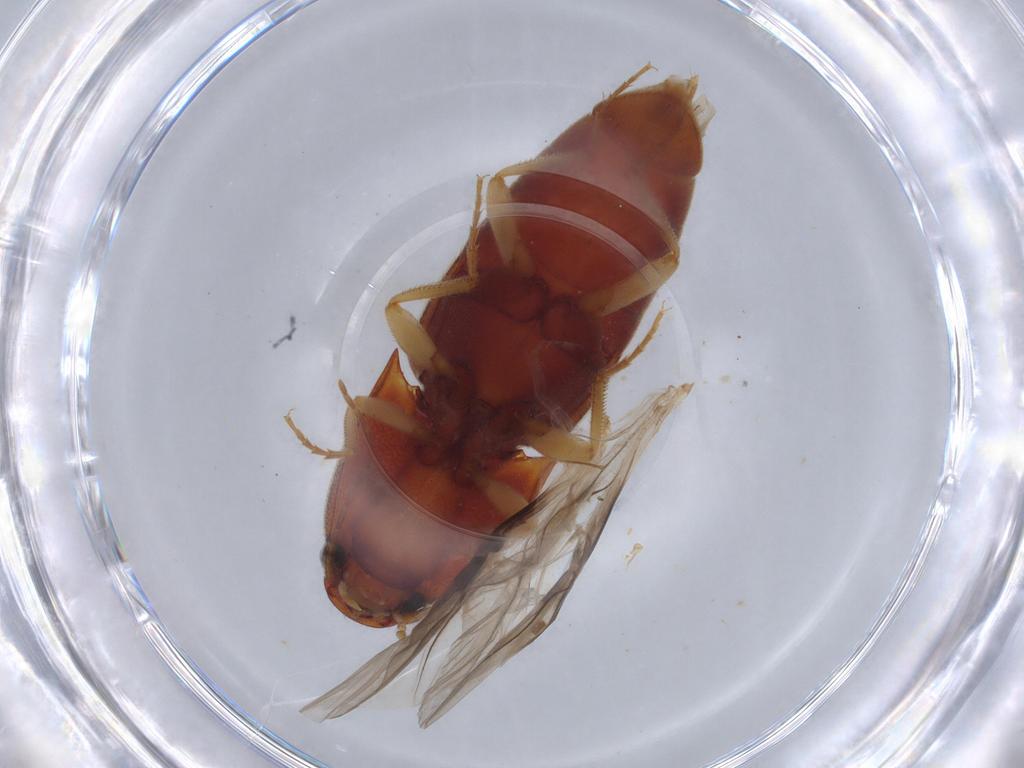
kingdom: Animalia
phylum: Arthropoda
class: Insecta
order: Coleoptera
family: Elateridae
